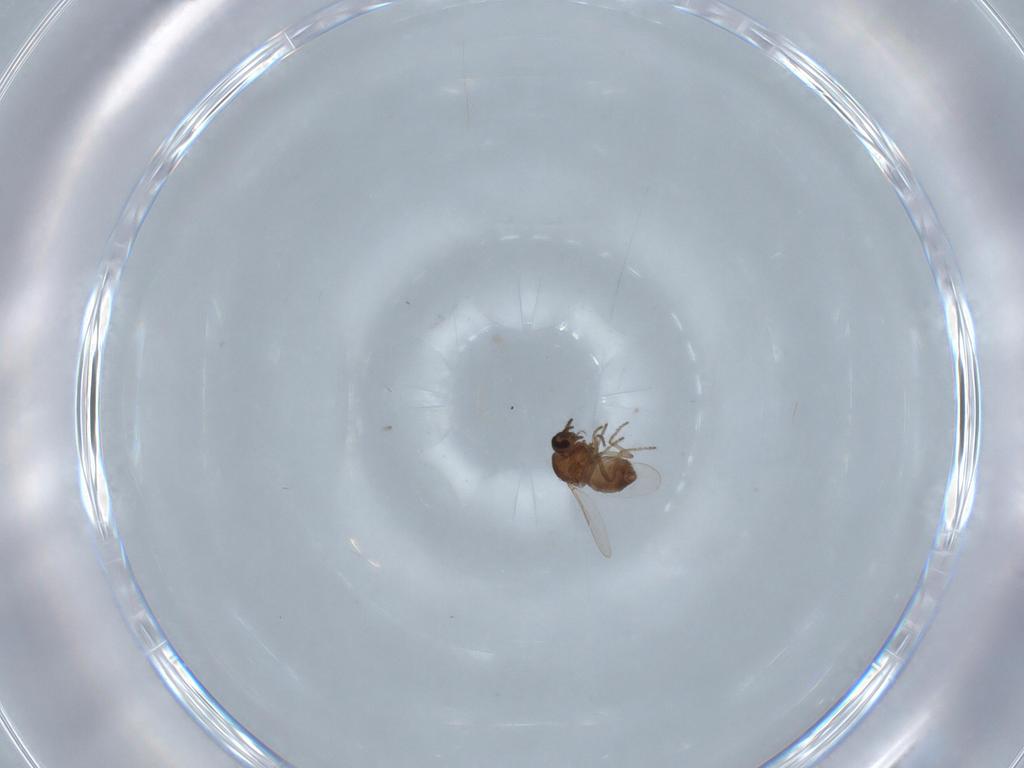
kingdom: Animalia
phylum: Arthropoda
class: Insecta
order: Diptera
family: Ceratopogonidae
